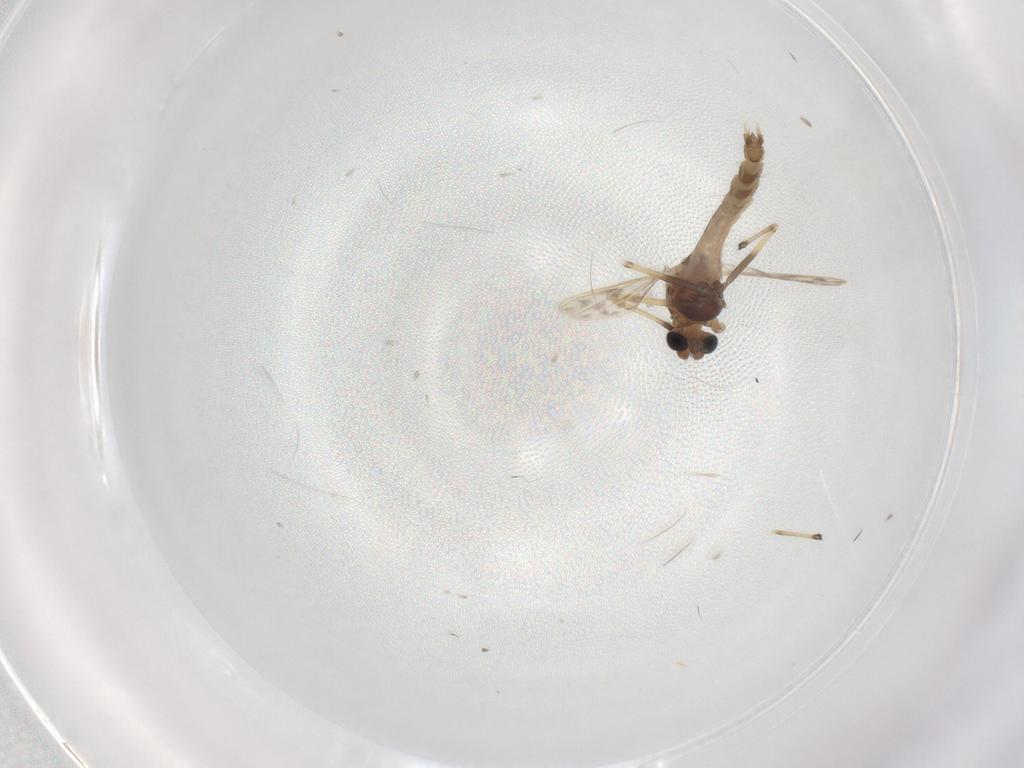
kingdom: Animalia
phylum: Arthropoda
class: Insecta
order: Diptera
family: Chironomidae
